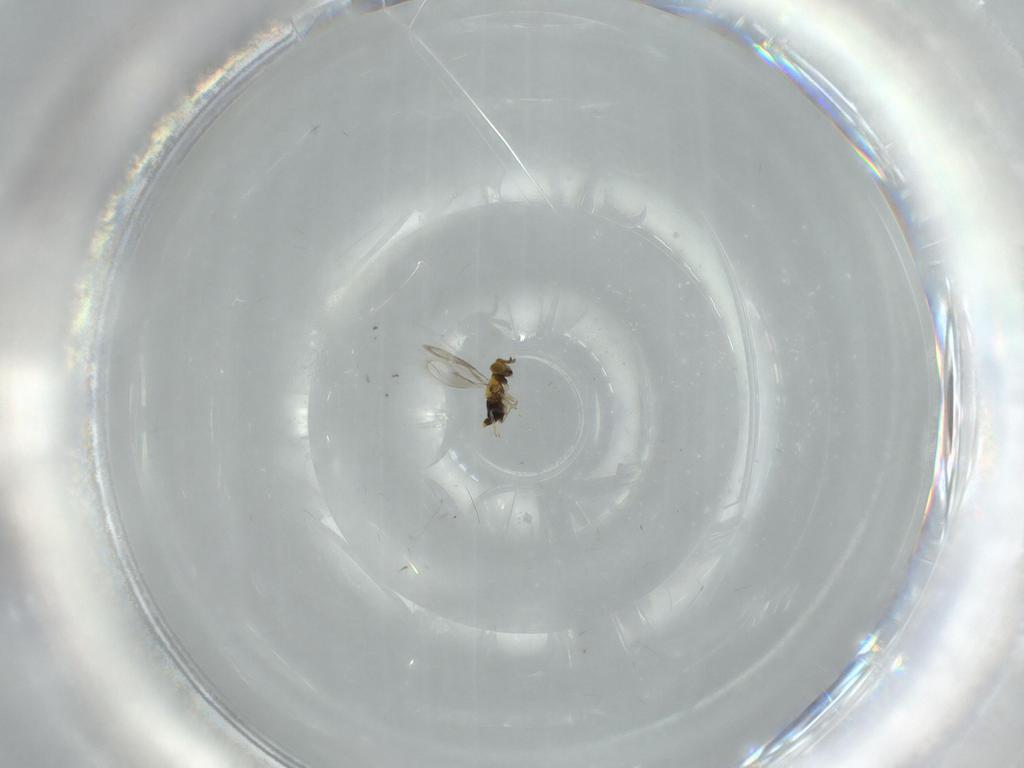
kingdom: Animalia
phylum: Arthropoda
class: Insecta
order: Hymenoptera
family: Aphelinidae
